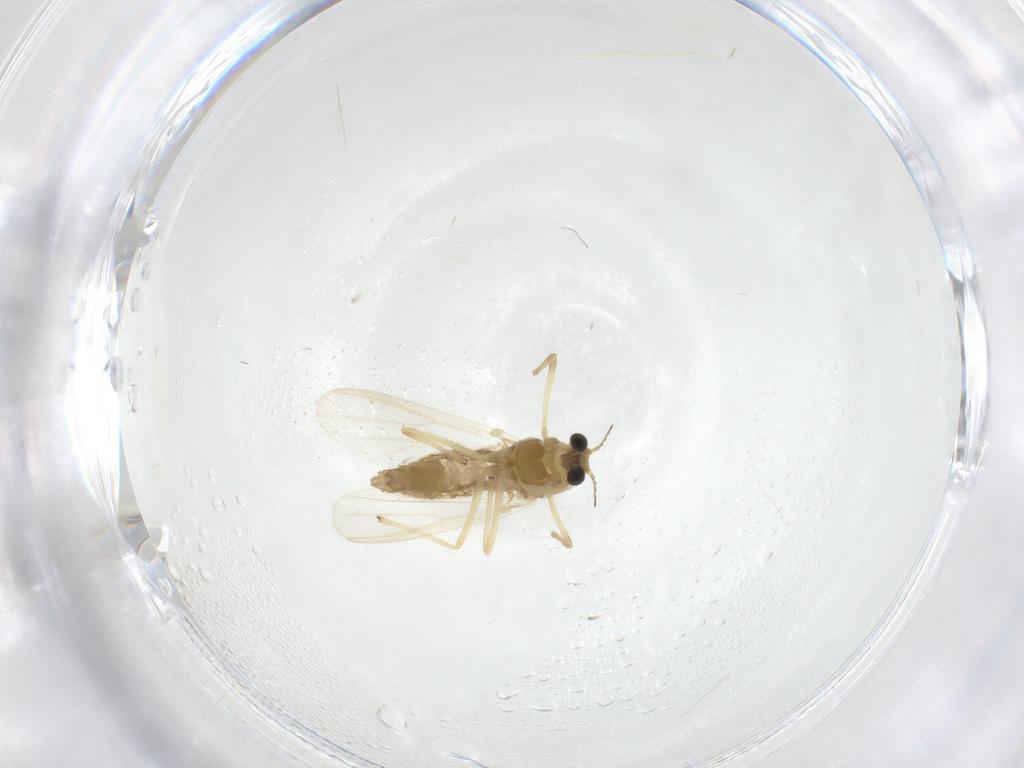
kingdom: Animalia
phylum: Arthropoda
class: Insecta
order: Diptera
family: Chironomidae
